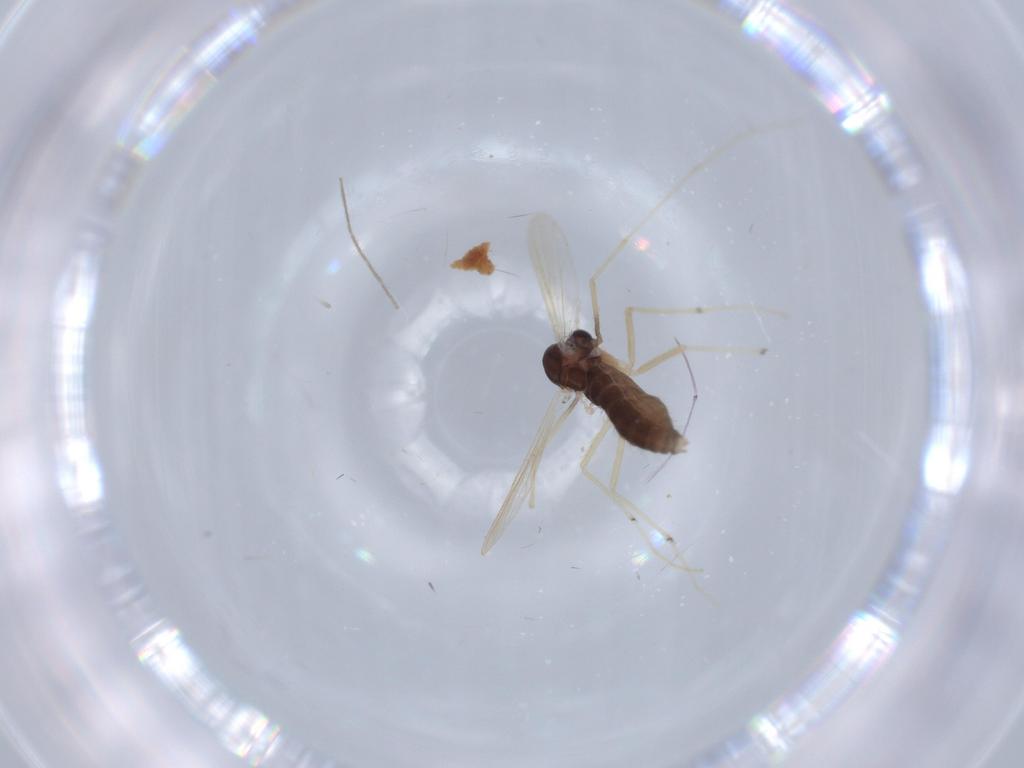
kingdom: Animalia
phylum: Arthropoda
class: Insecta
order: Diptera
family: Chironomidae
